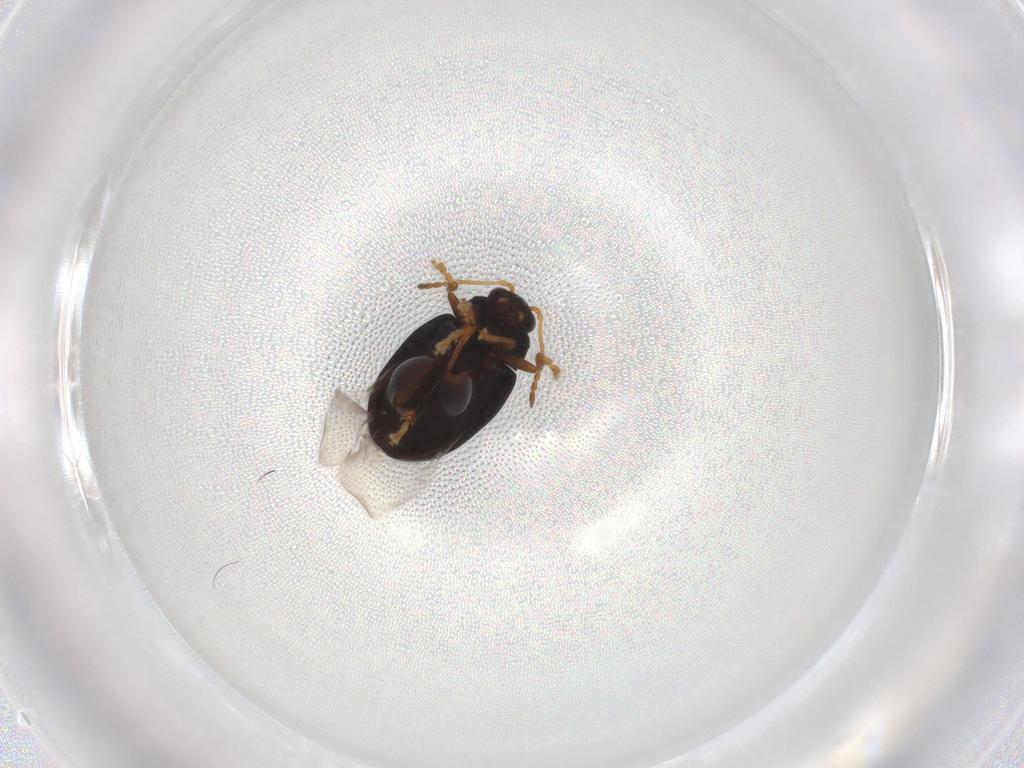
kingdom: Animalia
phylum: Arthropoda
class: Insecta
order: Coleoptera
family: Chrysomelidae
